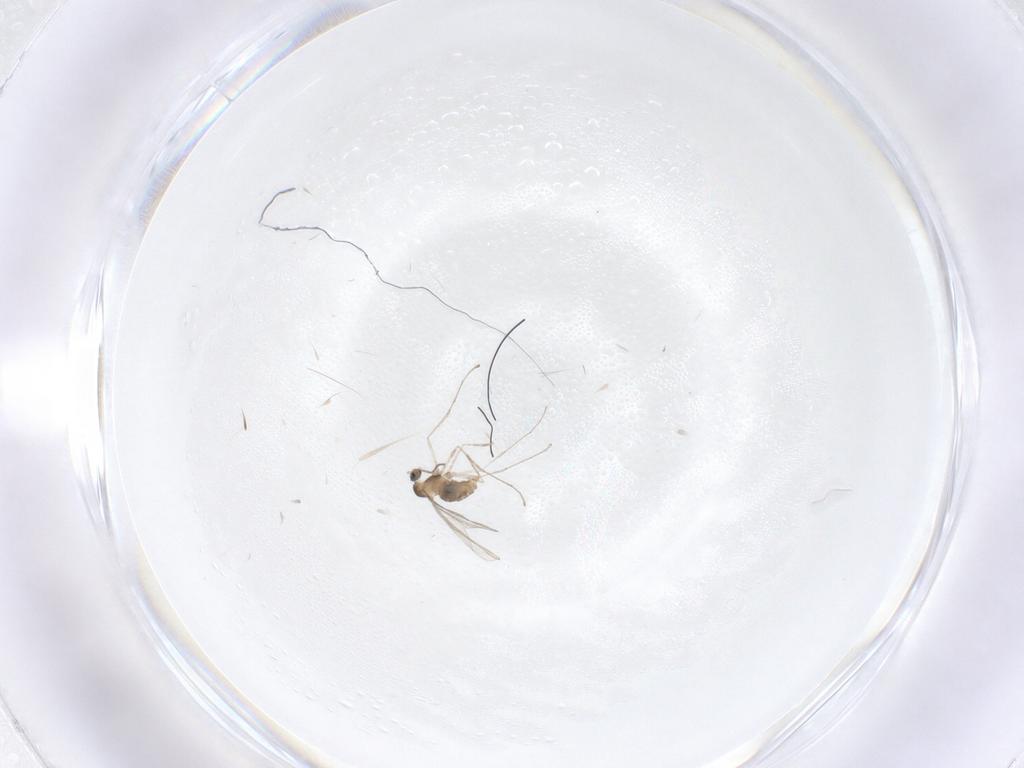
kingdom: Animalia
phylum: Arthropoda
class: Insecta
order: Diptera
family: Cecidomyiidae
